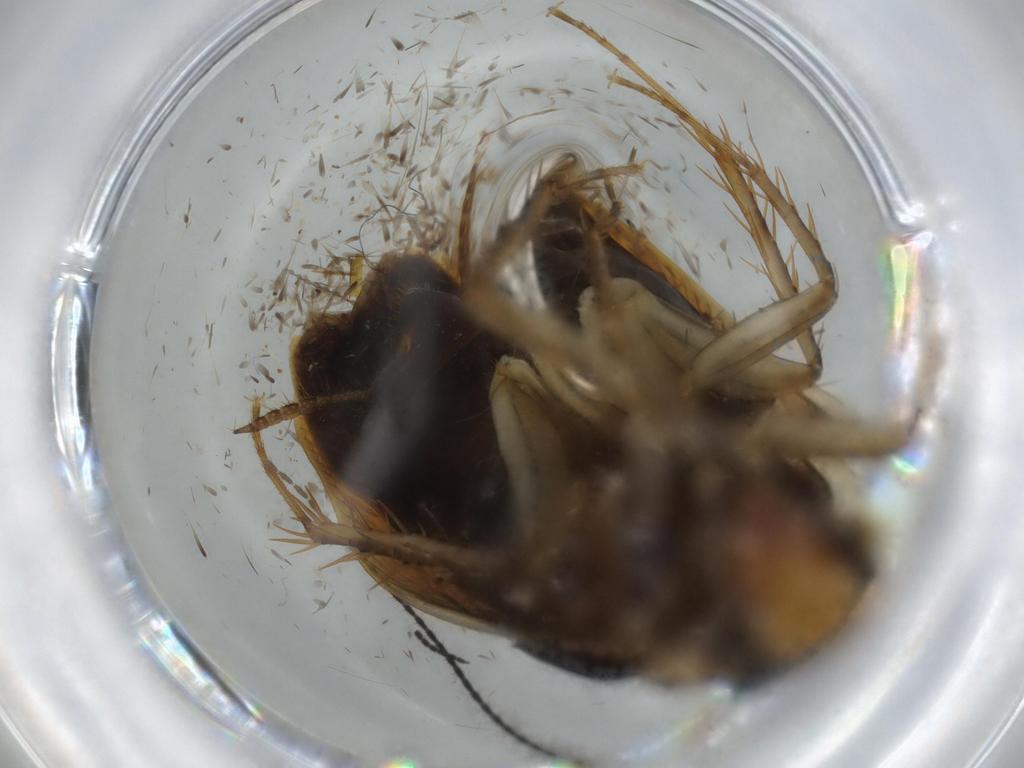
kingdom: Animalia
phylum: Arthropoda
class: Insecta
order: Blattodea
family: Ectobiidae
